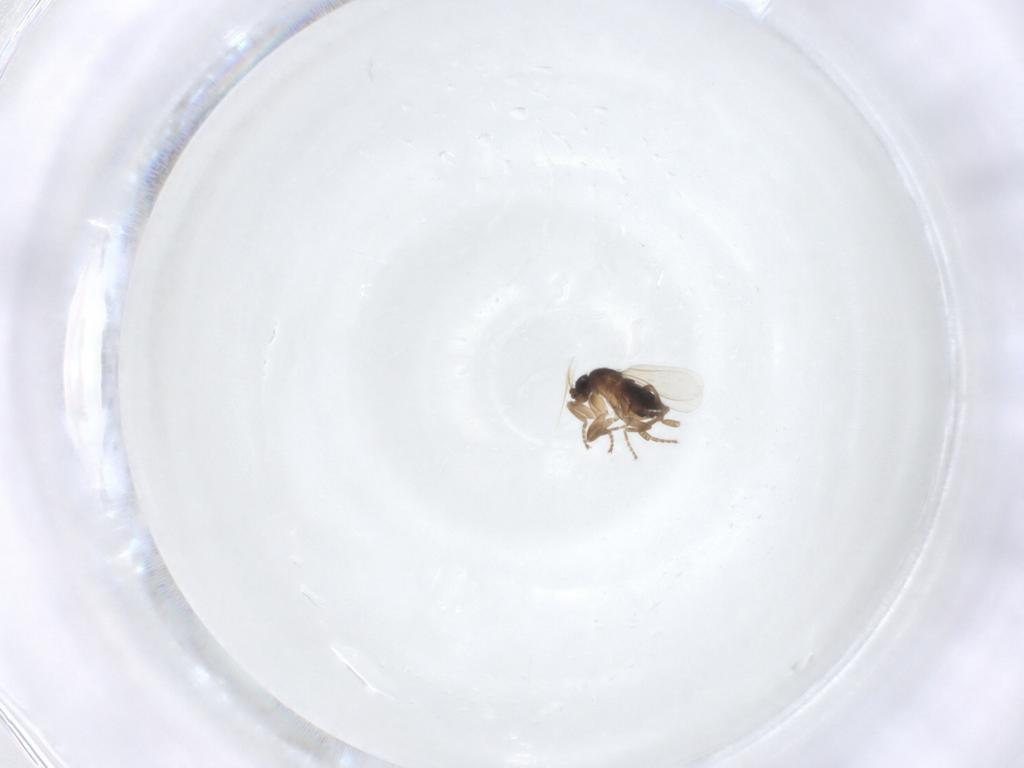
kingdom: Animalia
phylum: Arthropoda
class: Insecta
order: Diptera
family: Phoridae
